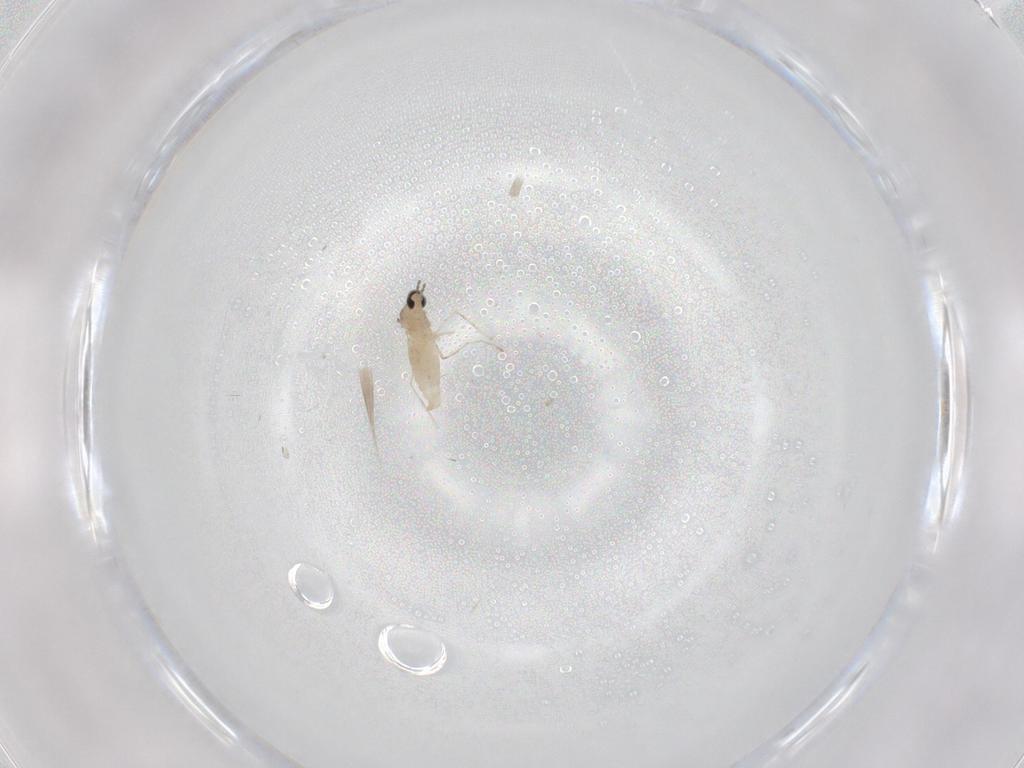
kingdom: Animalia
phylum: Arthropoda
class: Insecta
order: Diptera
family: Cecidomyiidae
